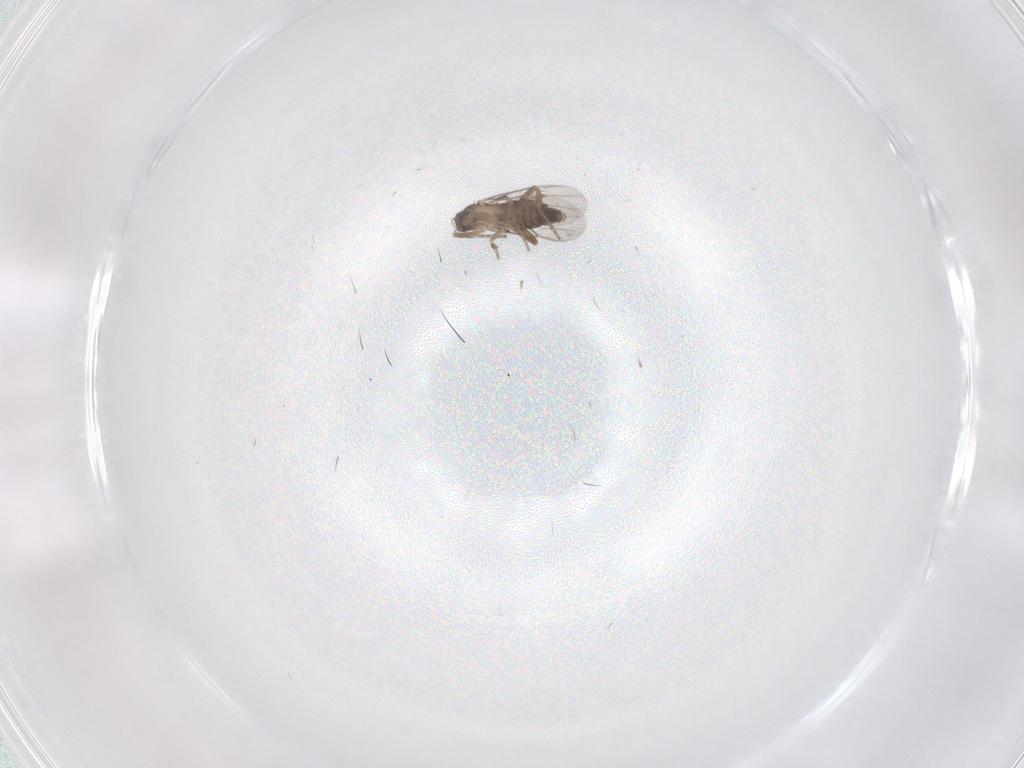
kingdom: Animalia
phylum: Arthropoda
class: Insecta
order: Diptera
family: Phoridae
